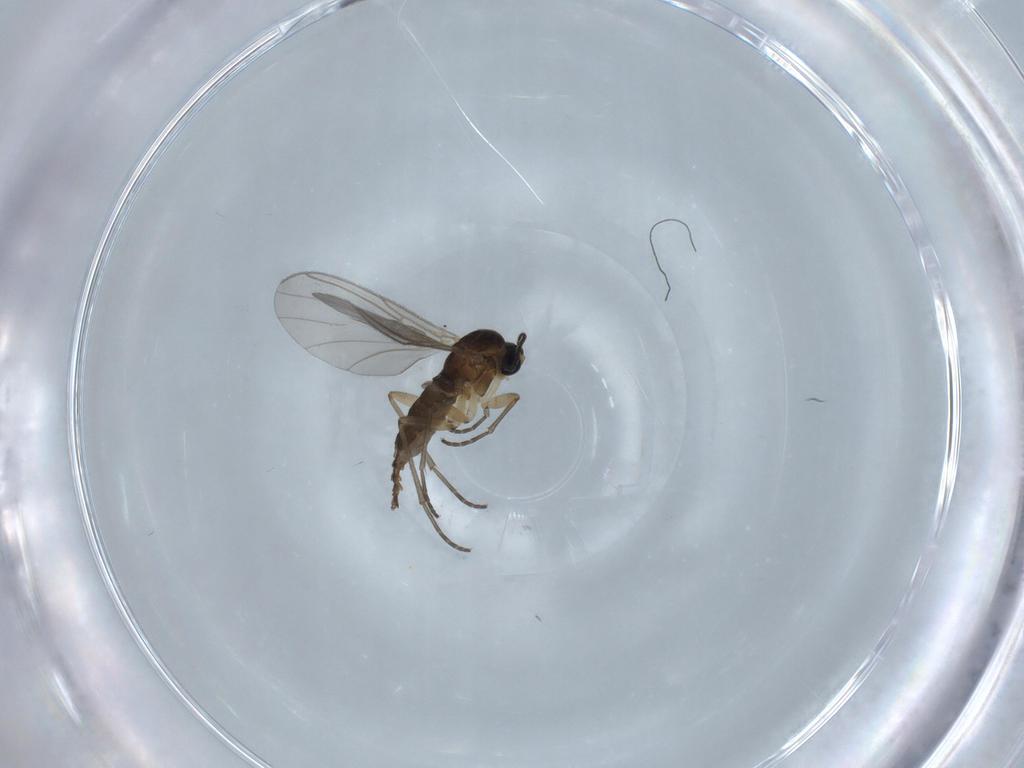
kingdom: Animalia
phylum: Arthropoda
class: Insecta
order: Diptera
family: Sciaridae
